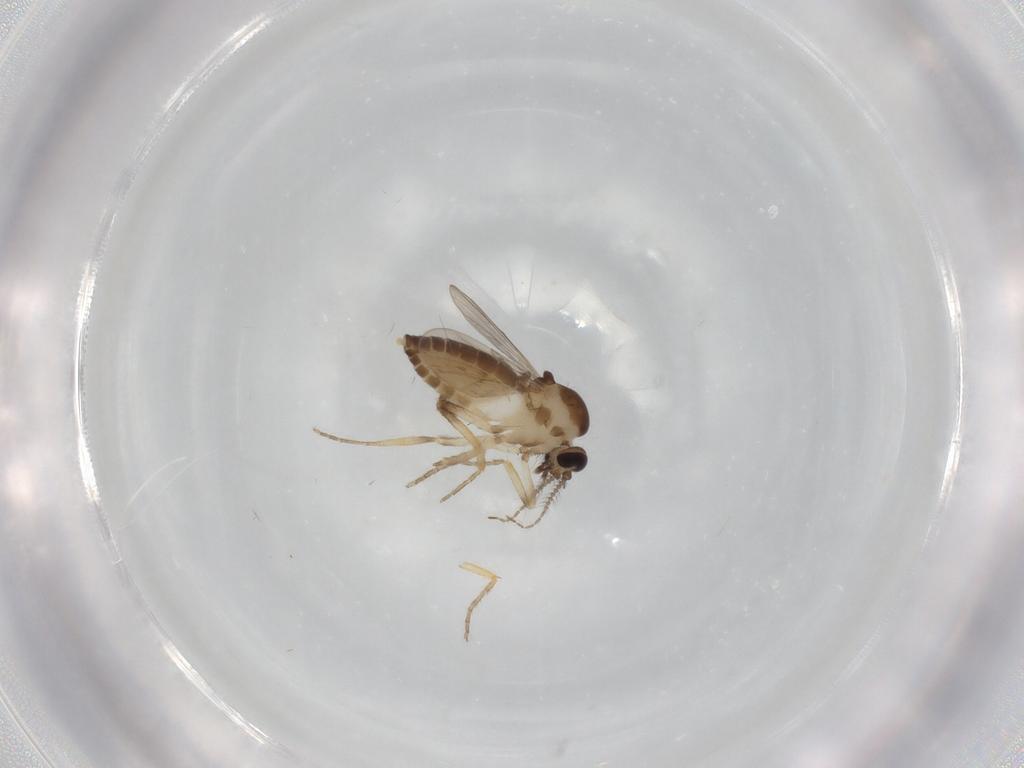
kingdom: Animalia
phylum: Arthropoda
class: Insecta
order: Diptera
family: Ceratopogonidae
